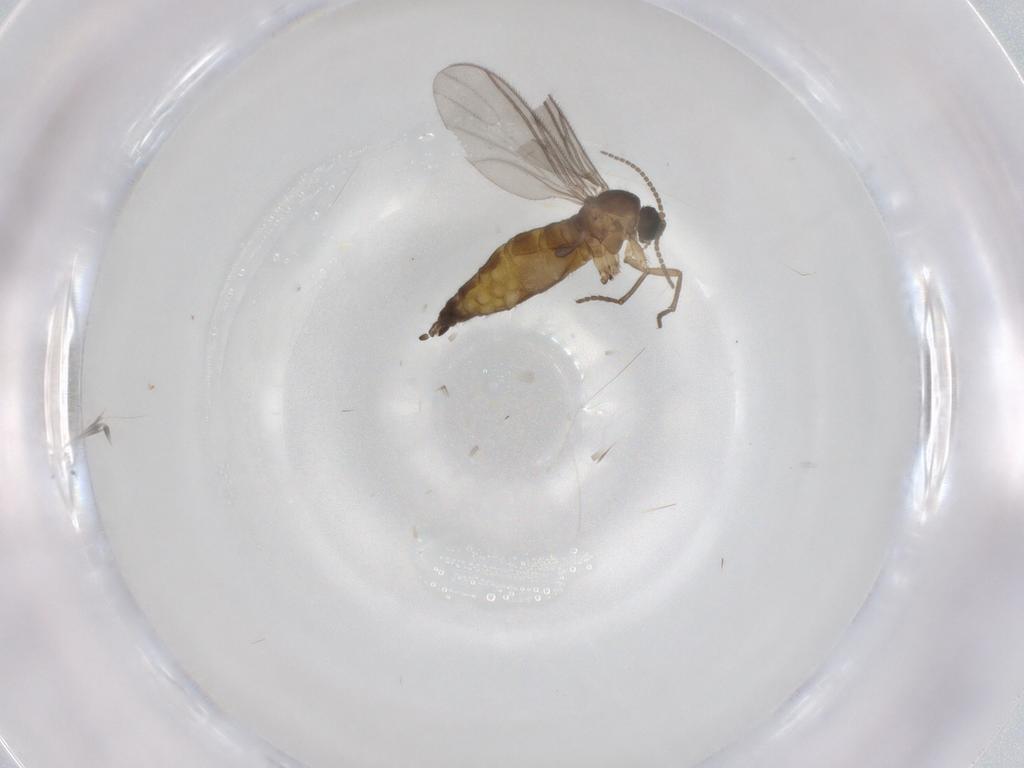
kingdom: Animalia
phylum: Arthropoda
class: Insecta
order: Diptera
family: Sciaridae
